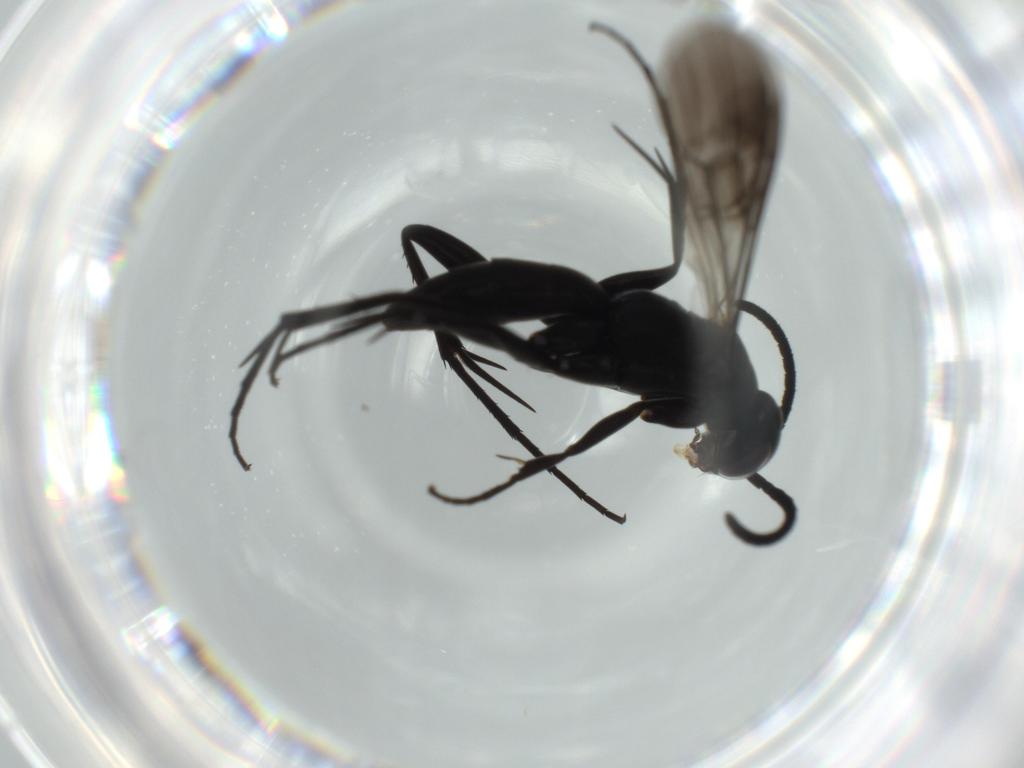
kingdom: Animalia
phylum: Arthropoda
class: Insecta
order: Hymenoptera
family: Pompilidae
